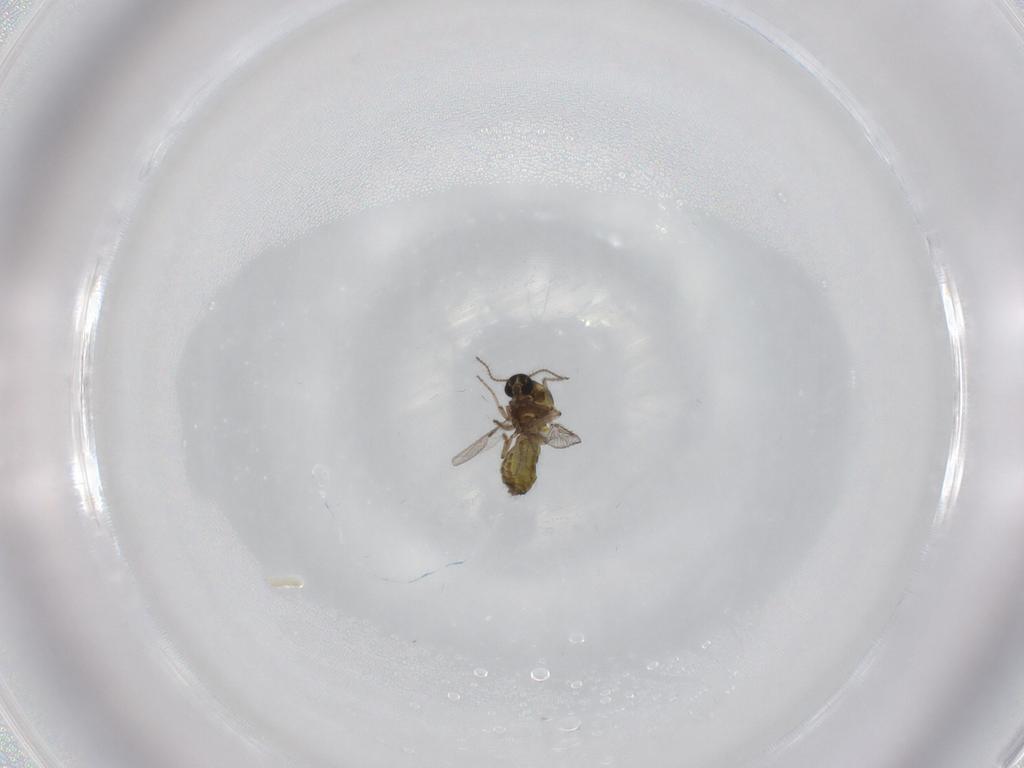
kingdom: Animalia
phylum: Arthropoda
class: Insecta
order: Diptera
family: Ceratopogonidae
